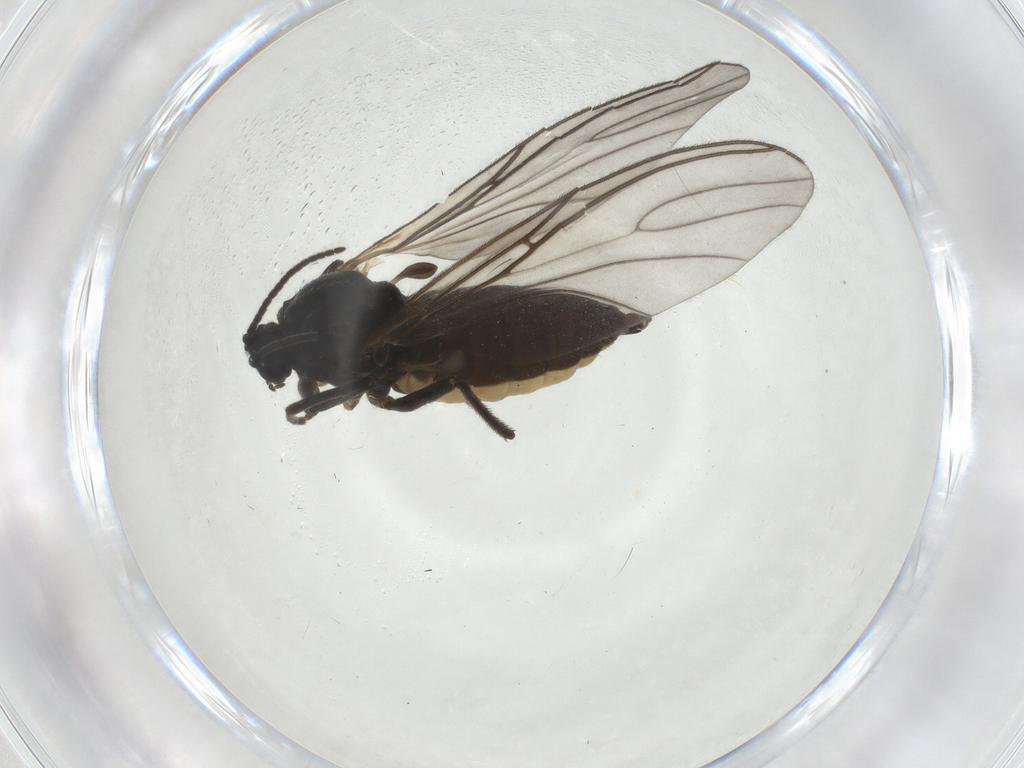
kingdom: Animalia
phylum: Arthropoda
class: Insecta
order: Diptera
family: Sciaridae
